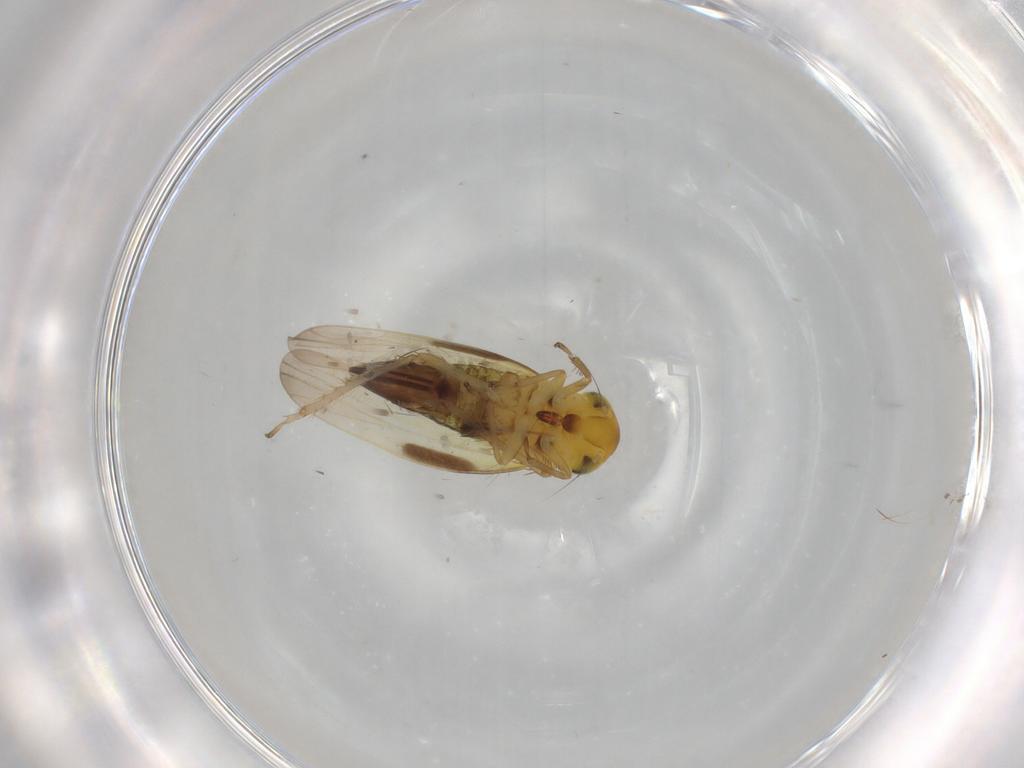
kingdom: Animalia
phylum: Arthropoda
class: Insecta
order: Hemiptera
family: Cicadellidae
